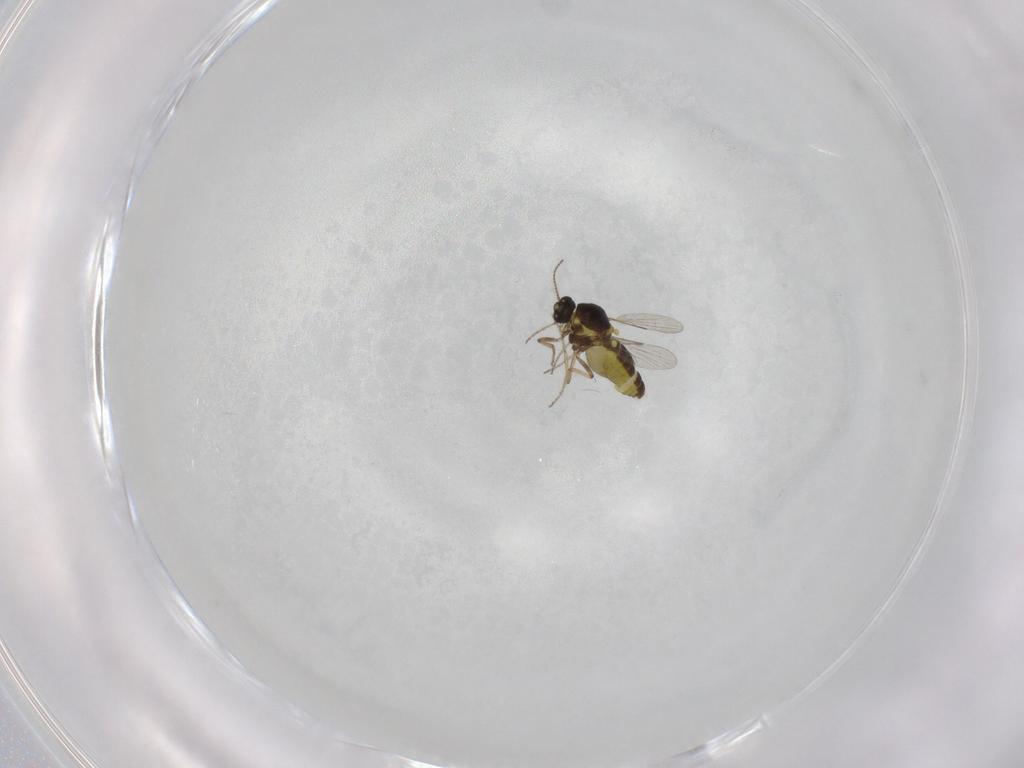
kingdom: Animalia
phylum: Arthropoda
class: Insecta
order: Diptera
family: Ceratopogonidae
